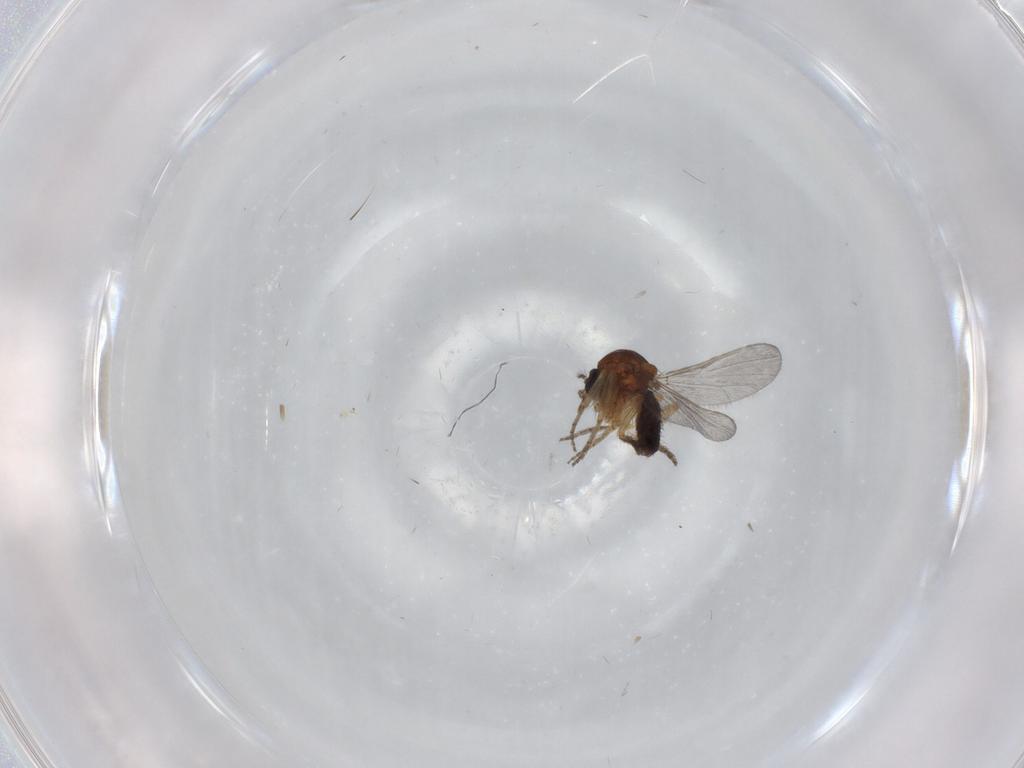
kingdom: Animalia
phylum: Arthropoda
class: Insecta
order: Diptera
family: Ceratopogonidae
